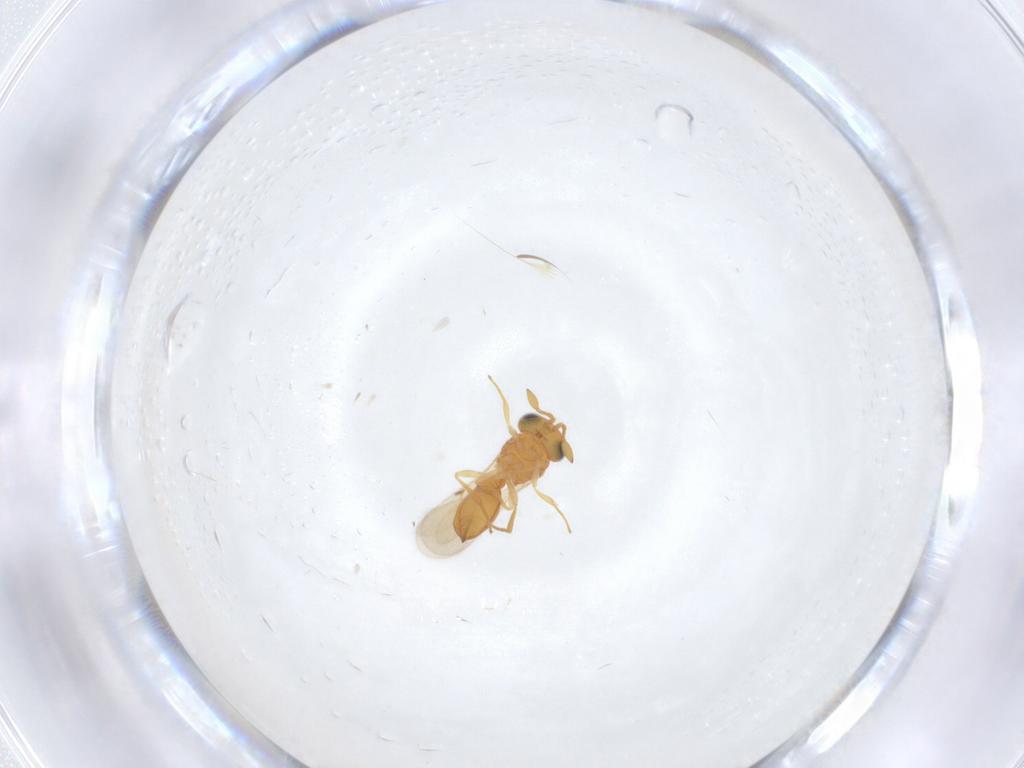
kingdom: Animalia
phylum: Arthropoda
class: Insecta
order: Hymenoptera
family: Scelionidae
